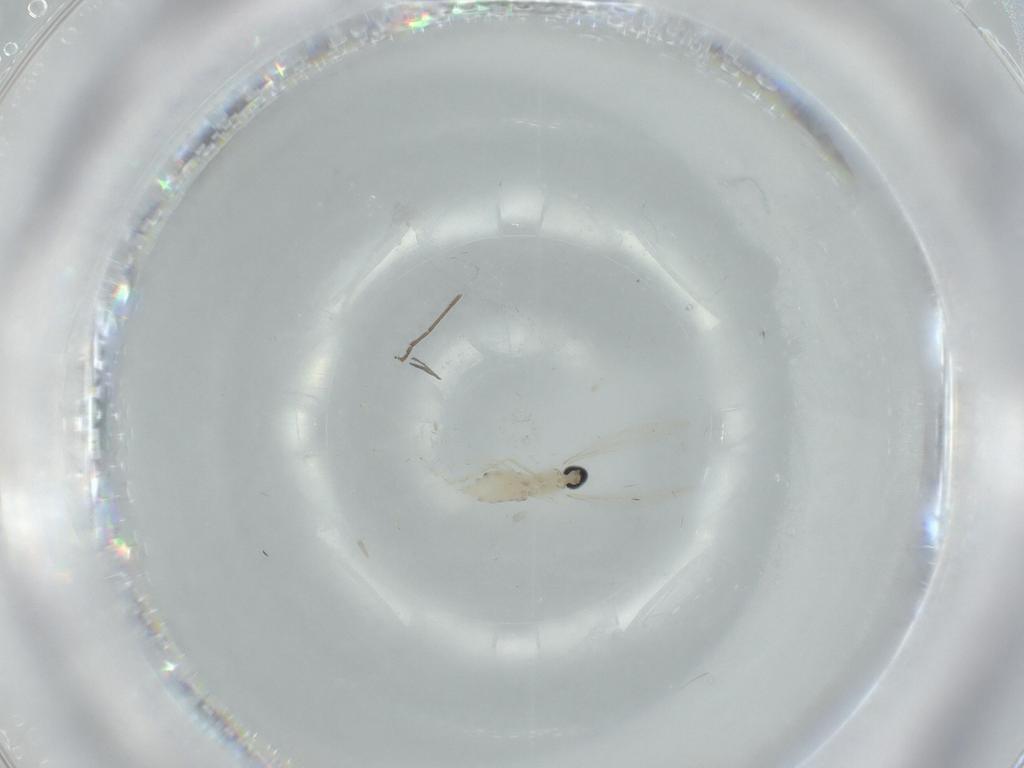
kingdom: Animalia
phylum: Arthropoda
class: Insecta
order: Diptera
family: Cecidomyiidae
